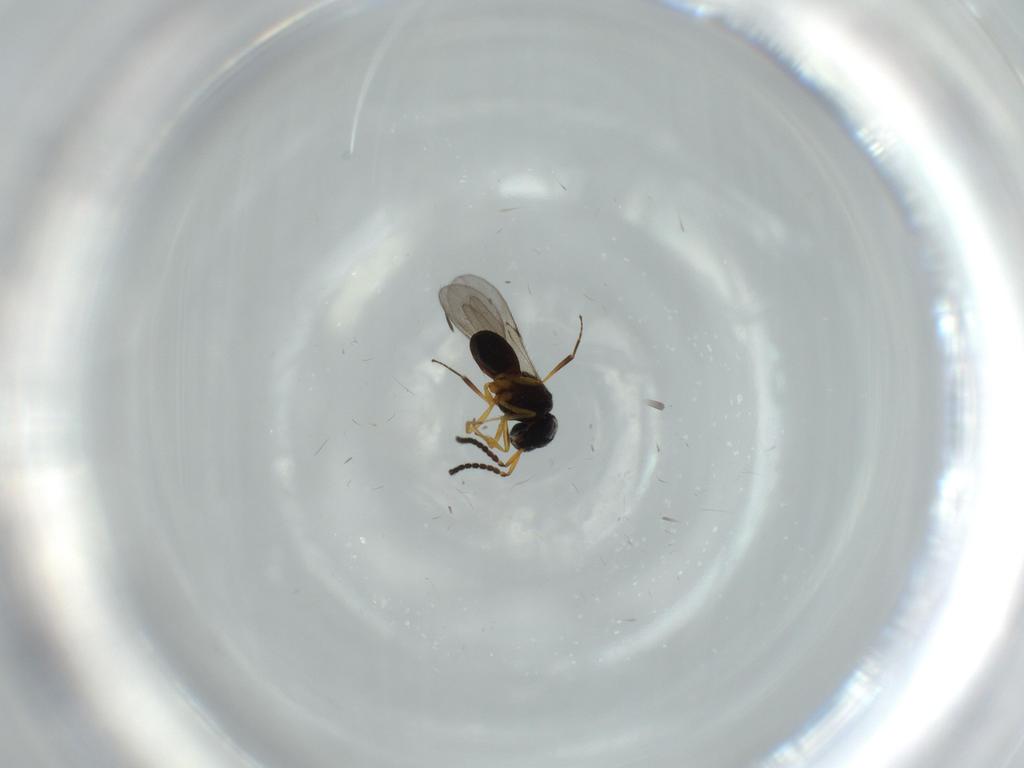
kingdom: Animalia
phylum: Arthropoda
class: Insecta
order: Hymenoptera
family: Scelionidae
